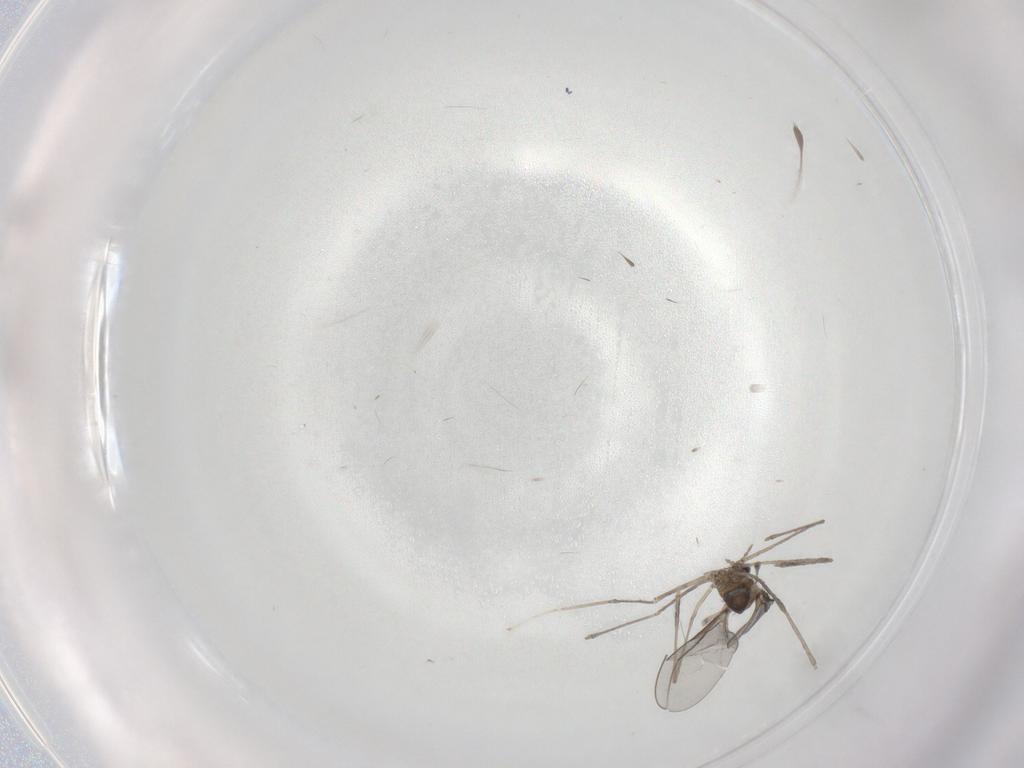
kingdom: Animalia
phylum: Arthropoda
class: Insecta
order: Diptera
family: Cecidomyiidae
